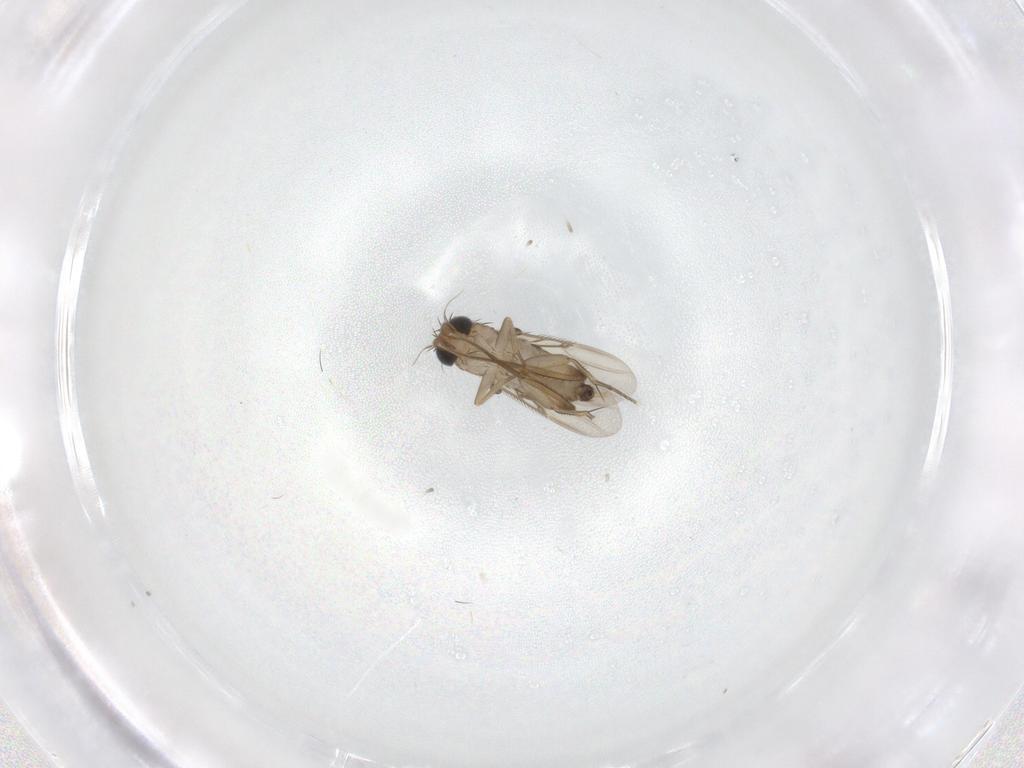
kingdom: Animalia
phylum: Arthropoda
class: Insecta
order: Diptera
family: Phoridae
